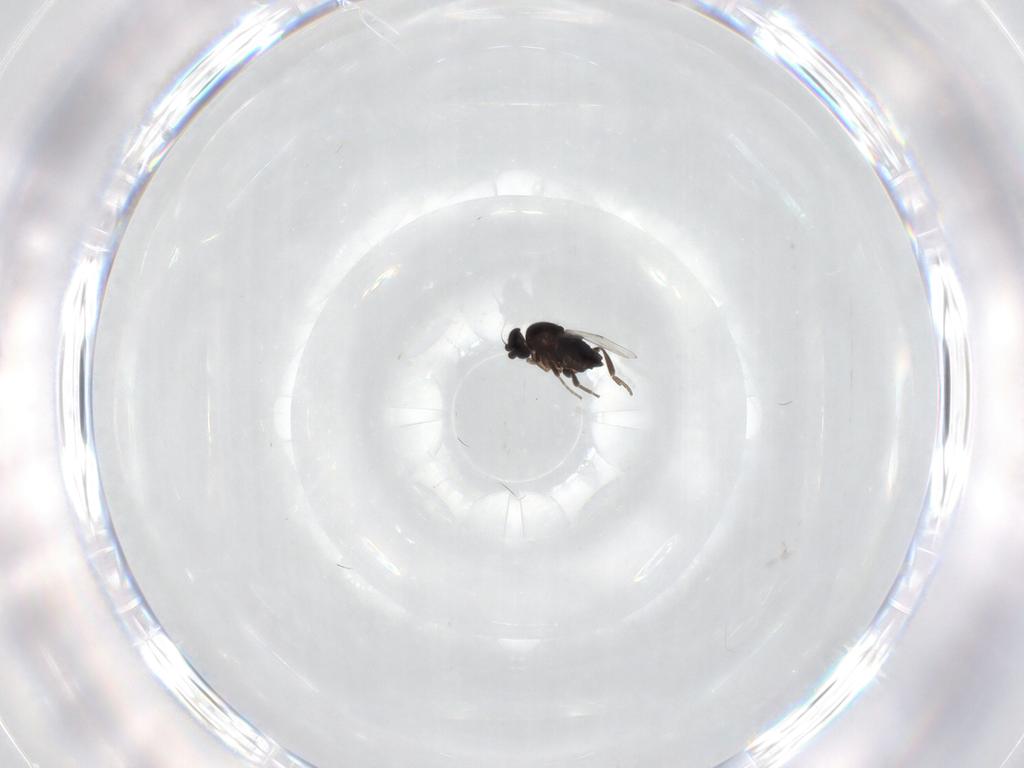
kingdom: Animalia
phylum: Arthropoda
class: Insecta
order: Diptera
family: Phoridae
